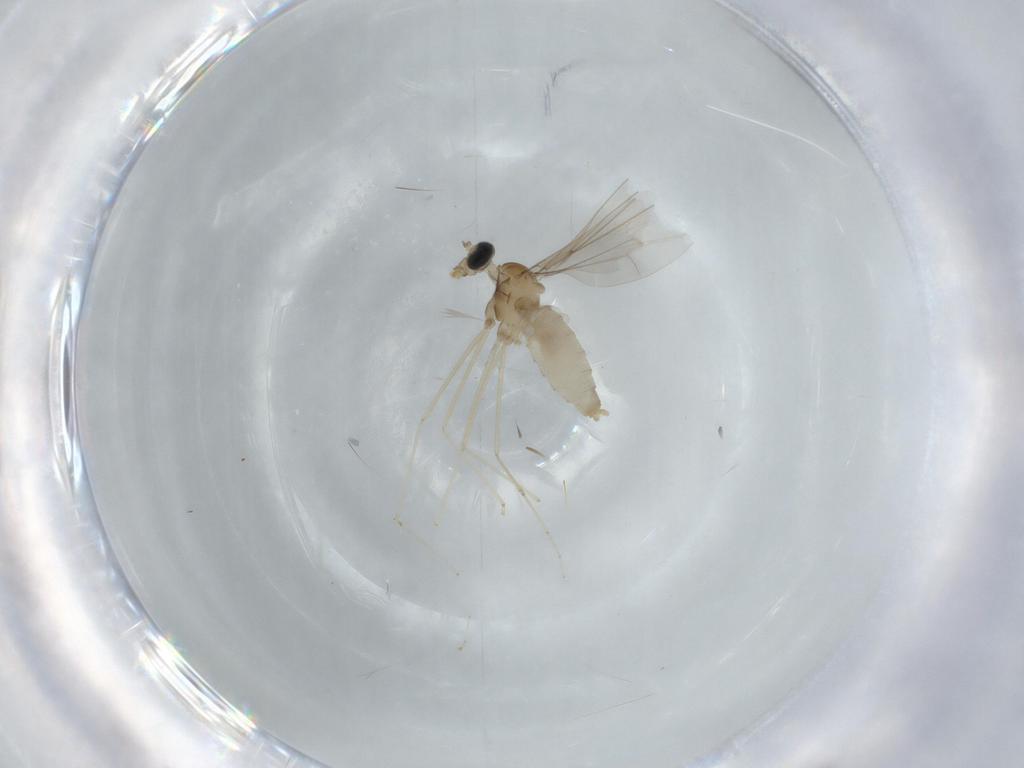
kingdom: Animalia
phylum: Arthropoda
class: Insecta
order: Diptera
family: Cecidomyiidae
